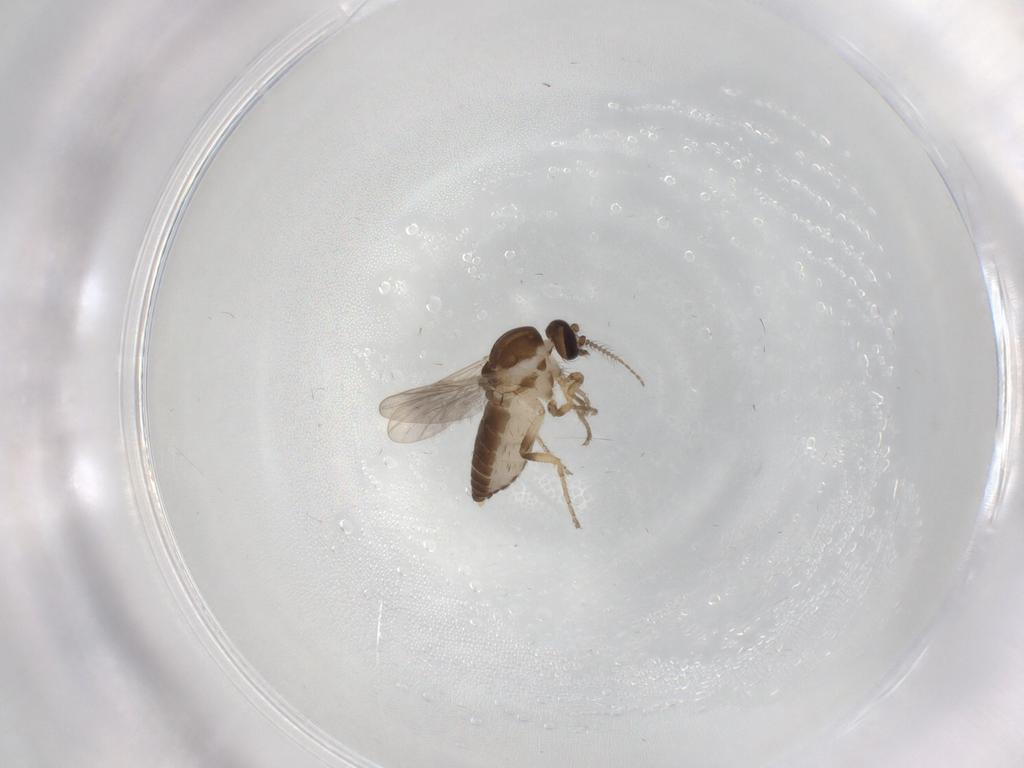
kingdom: Animalia
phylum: Arthropoda
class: Insecta
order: Diptera
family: Ceratopogonidae
